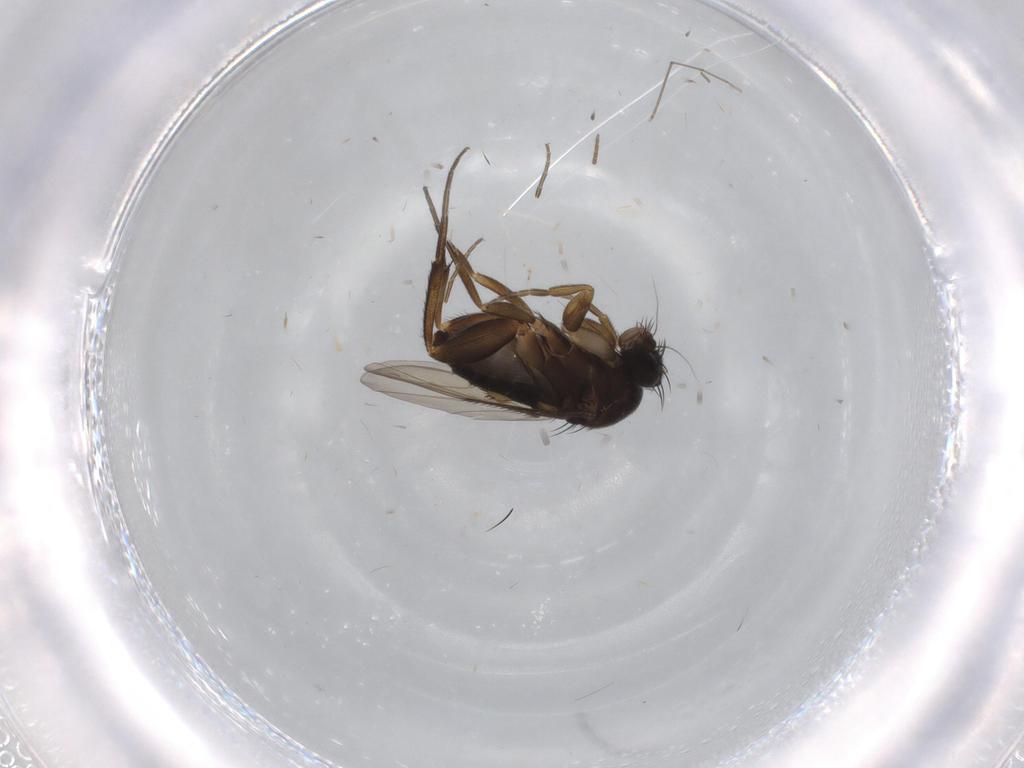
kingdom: Animalia
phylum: Arthropoda
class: Insecta
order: Diptera
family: Phoridae
